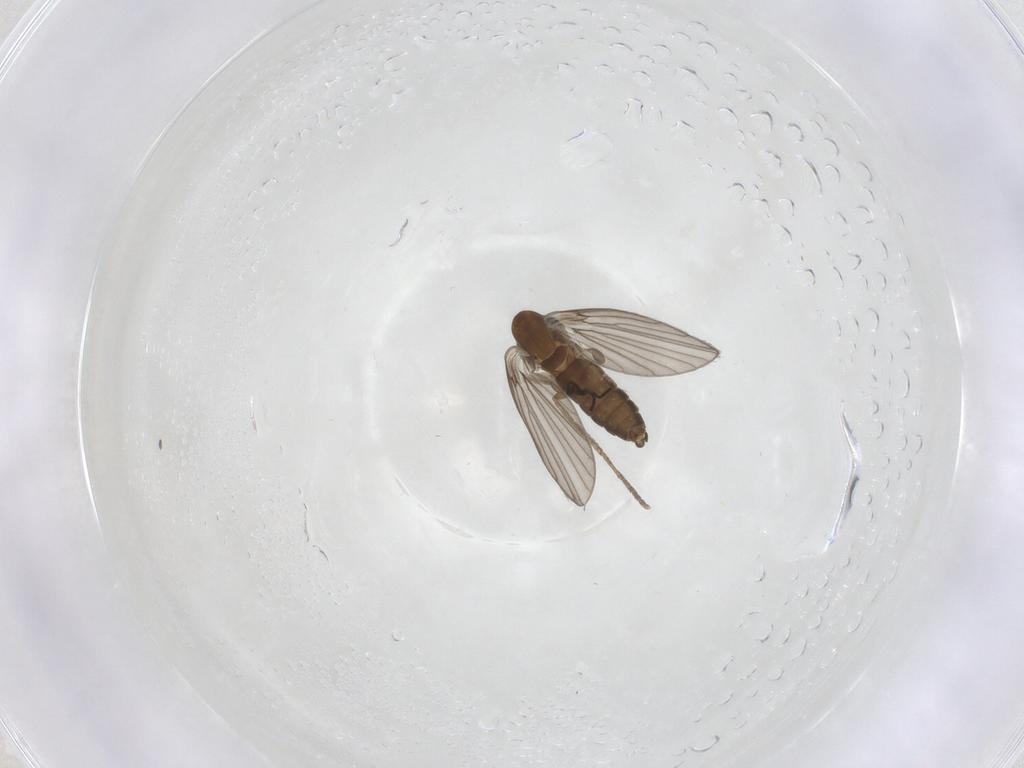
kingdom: Animalia
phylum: Arthropoda
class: Insecta
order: Diptera
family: Psychodidae
